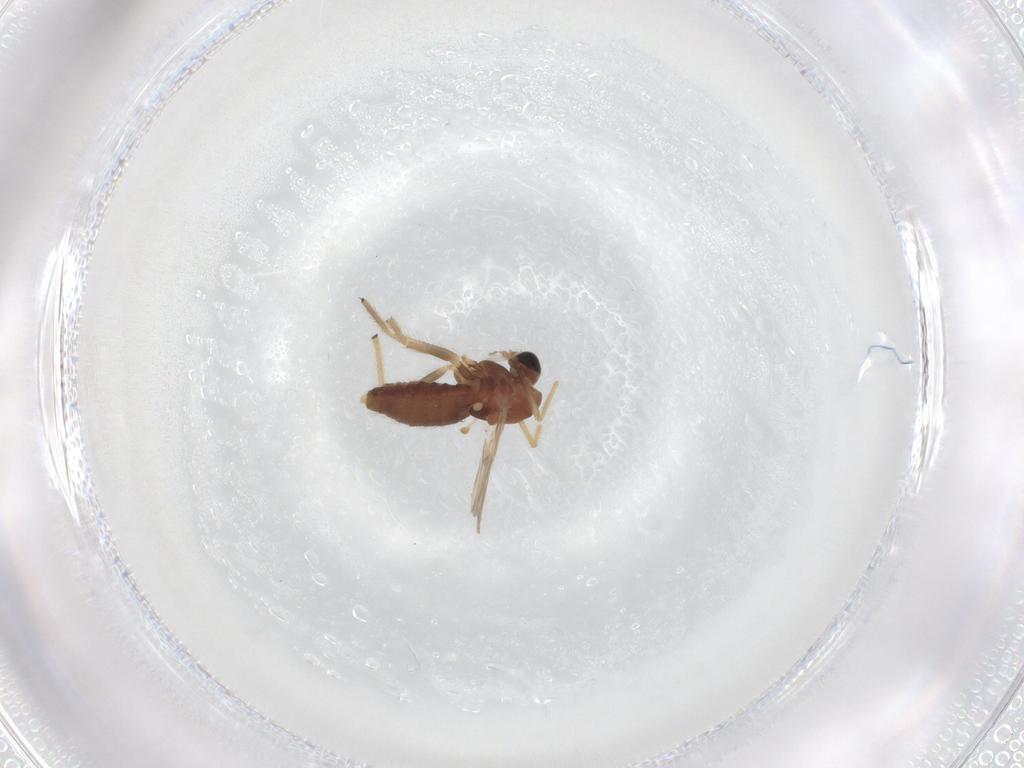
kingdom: Animalia
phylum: Arthropoda
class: Insecta
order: Diptera
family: Chironomidae
